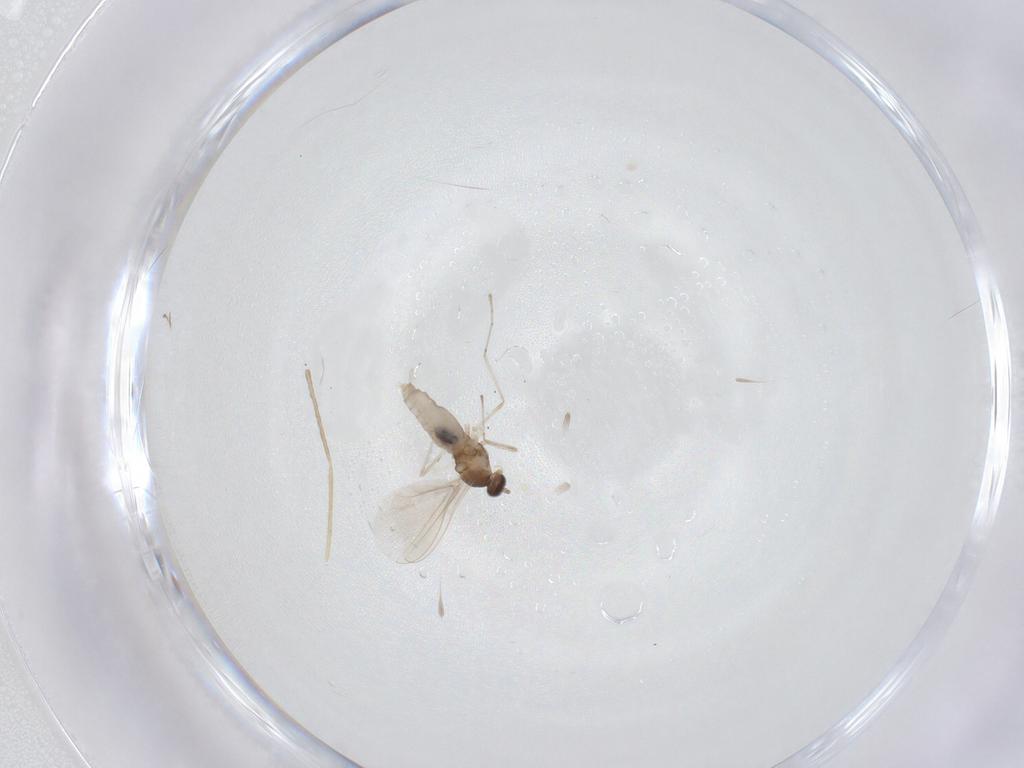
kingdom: Animalia
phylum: Arthropoda
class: Insecta
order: Diptera
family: Cecidomyiidae
